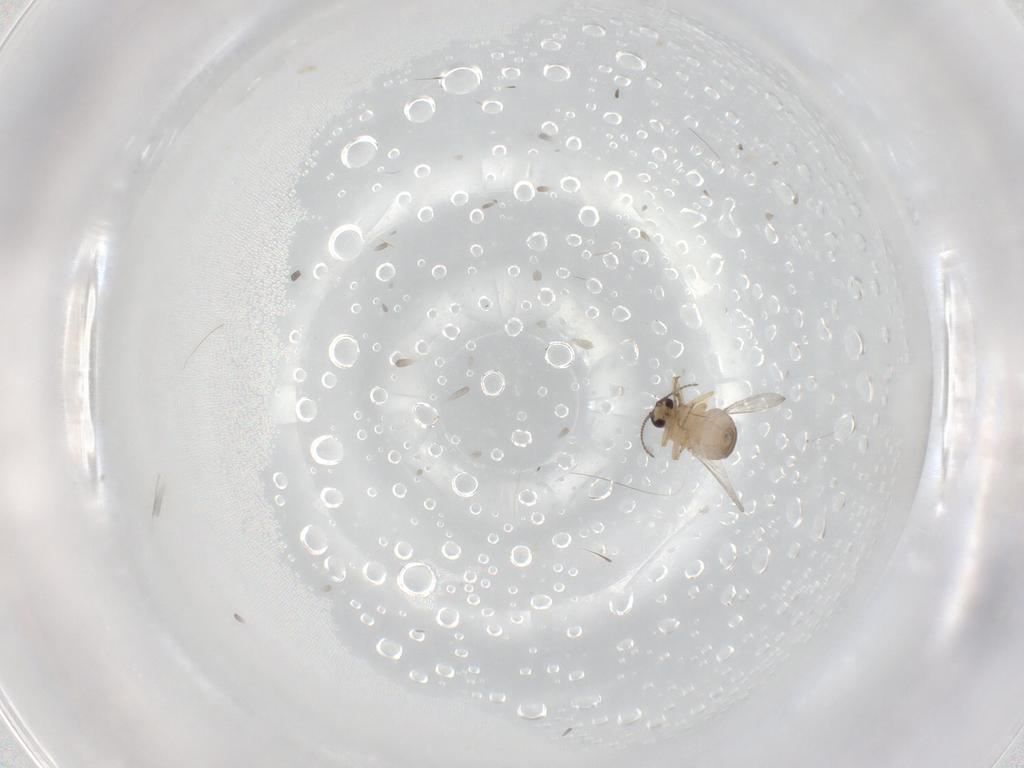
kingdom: Animalia
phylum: Arthropoda
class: Insecta
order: Diptera
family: Ceratopogonidae
